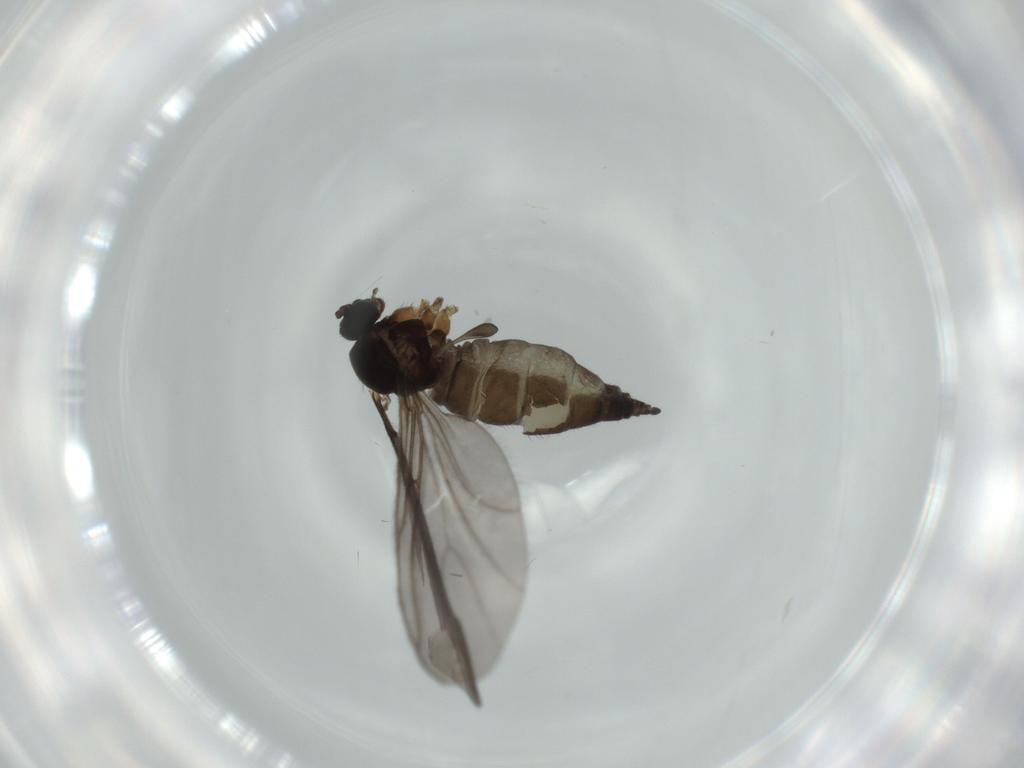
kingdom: Animalia
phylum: Arthropoda
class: Insecta
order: Diptera
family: Sciaridae
